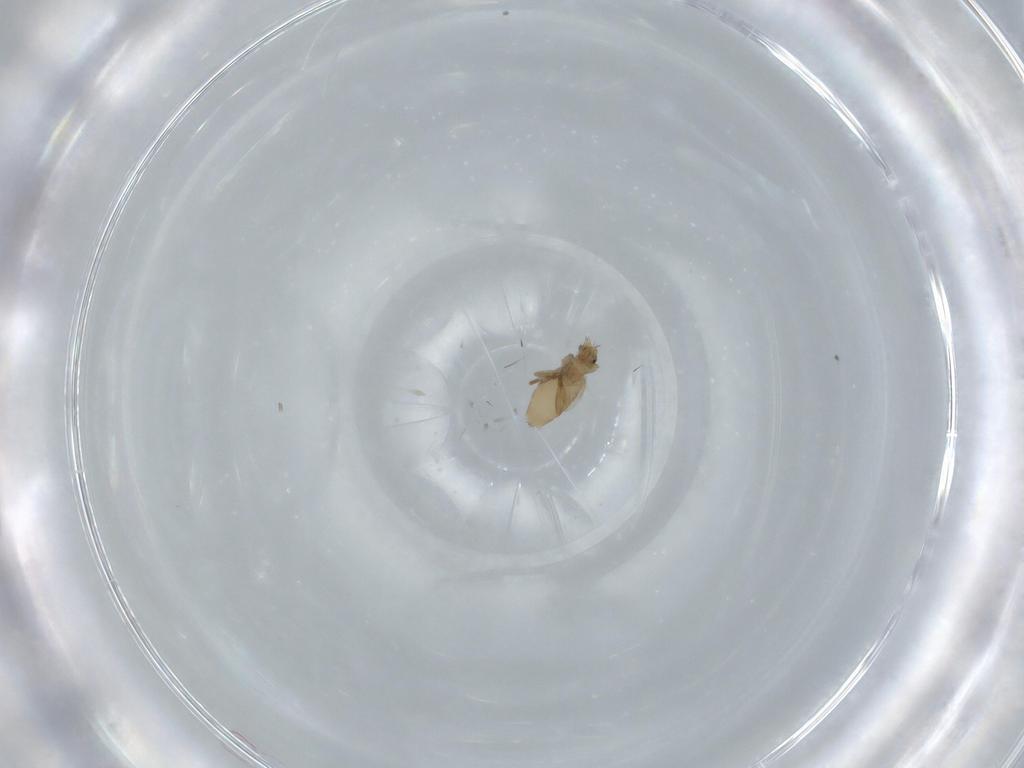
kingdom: Animalia
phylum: Arthropoda
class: Insecta
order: Diptera
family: Phoridae
